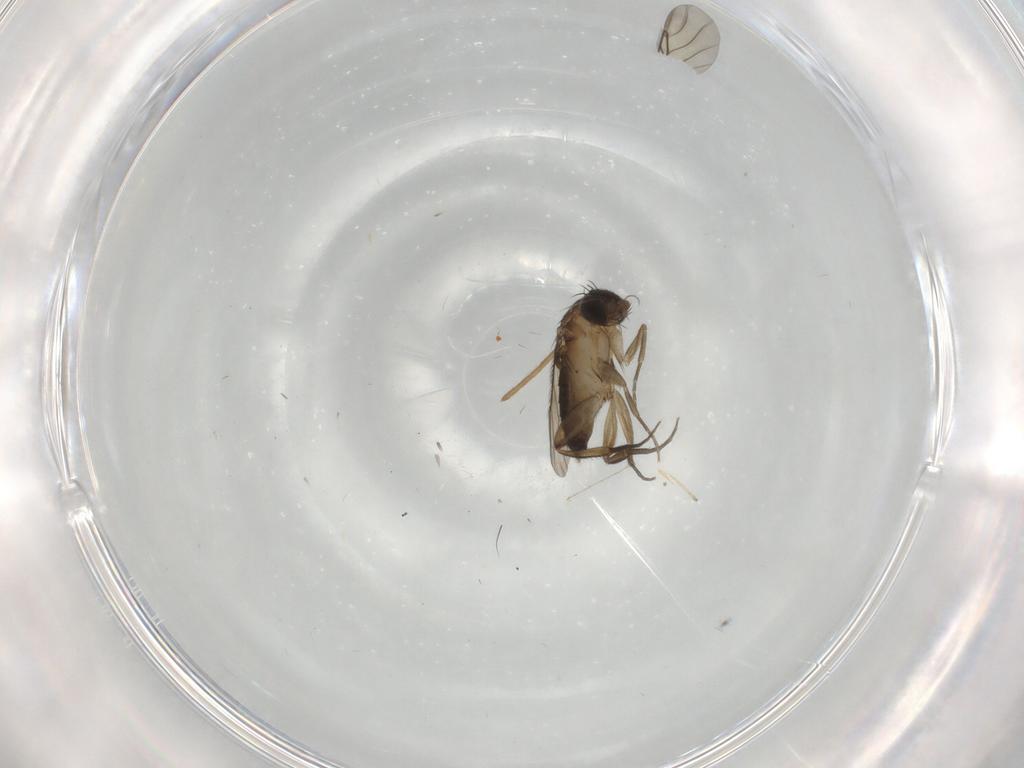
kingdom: Animalia
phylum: Arthropoda
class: Insecta
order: Diptera
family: Phoridae
